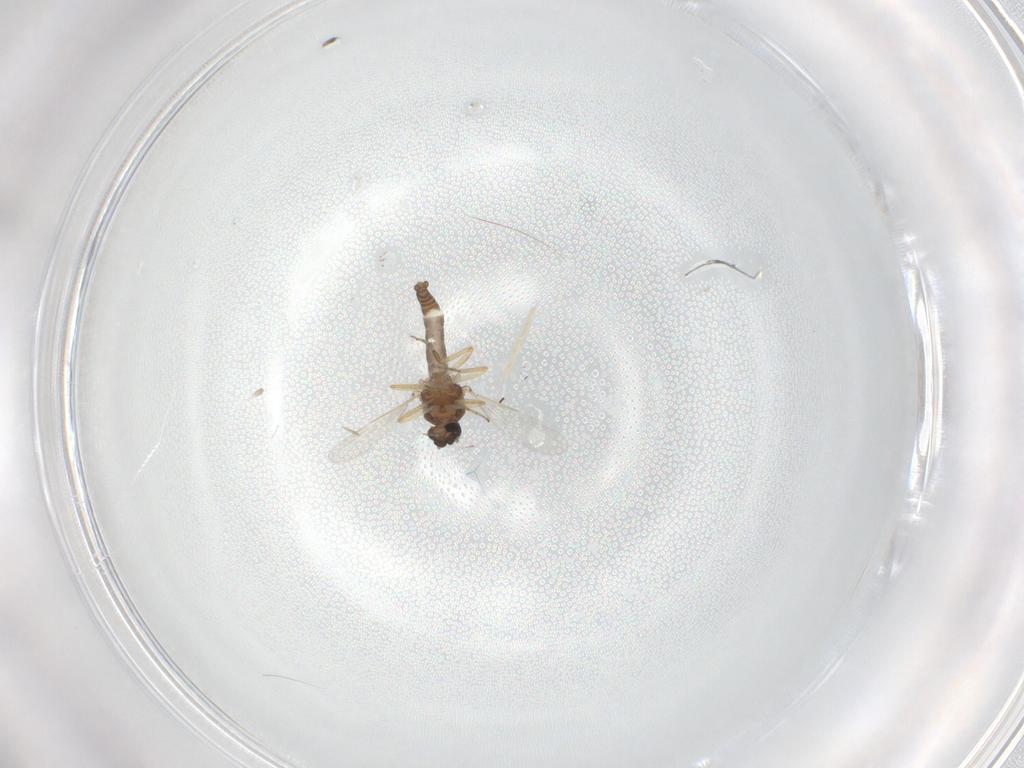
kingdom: Animalia
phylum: Arthropoda
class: Insecta
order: Diptera
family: Ceratopogonidae
